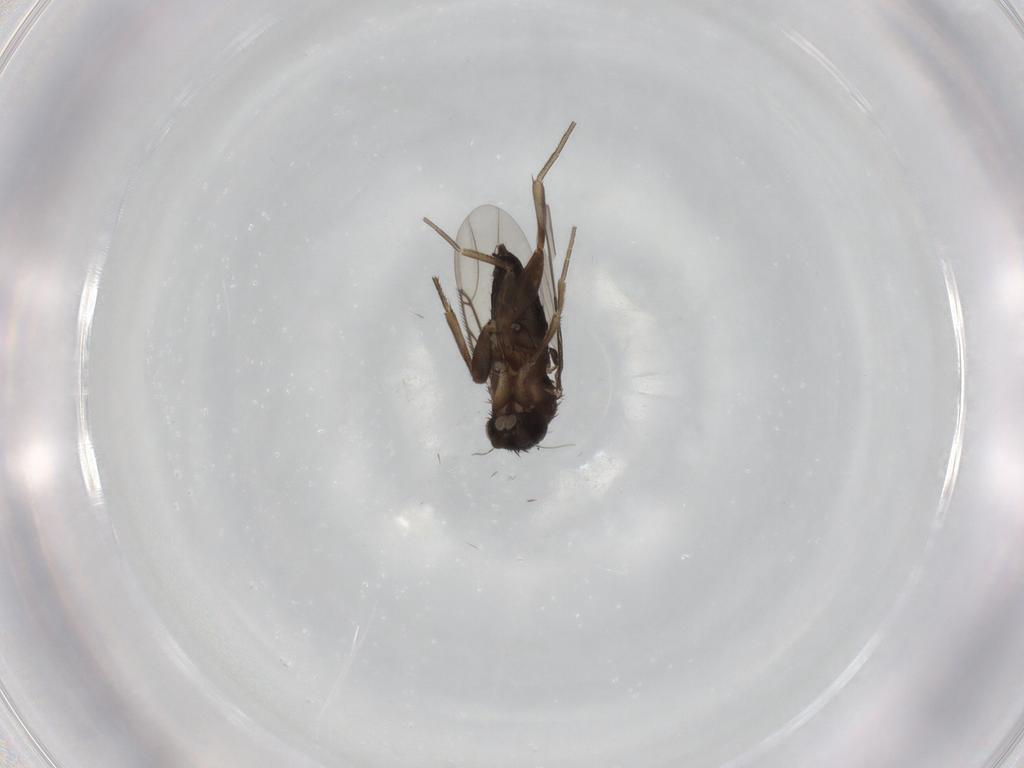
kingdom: Animalia
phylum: Arthropoda
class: Insecta
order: Diptera
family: Phoridae
